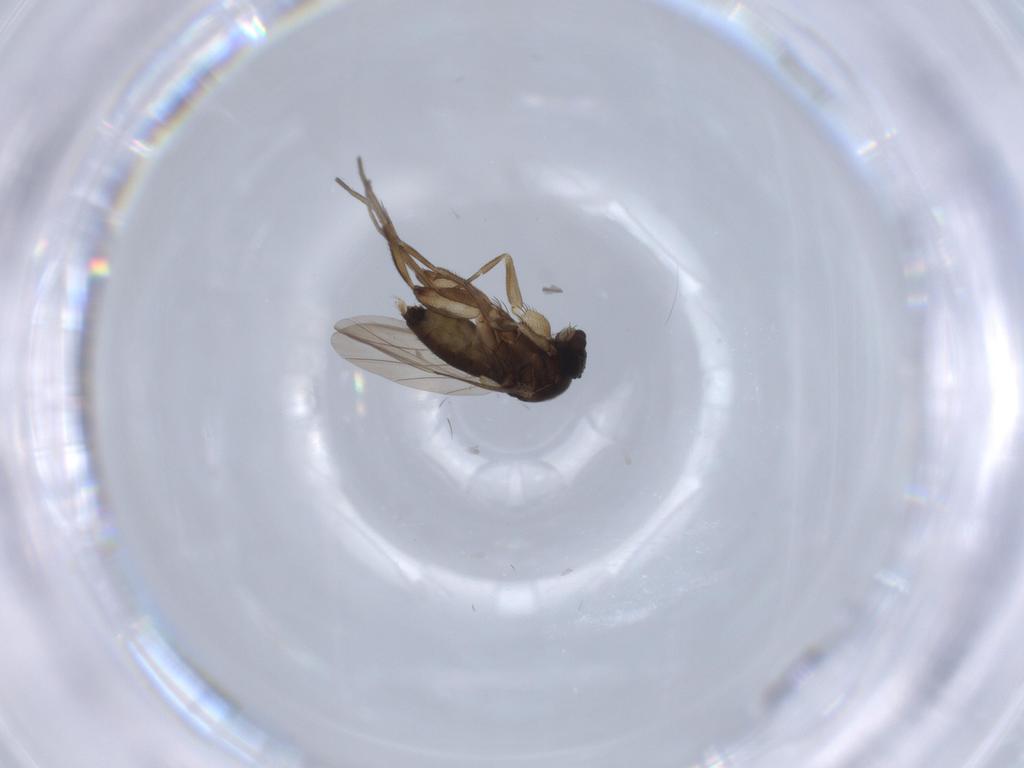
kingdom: Animalia
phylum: Arthropoda
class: Insecta
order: Diptera
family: Phoridae
